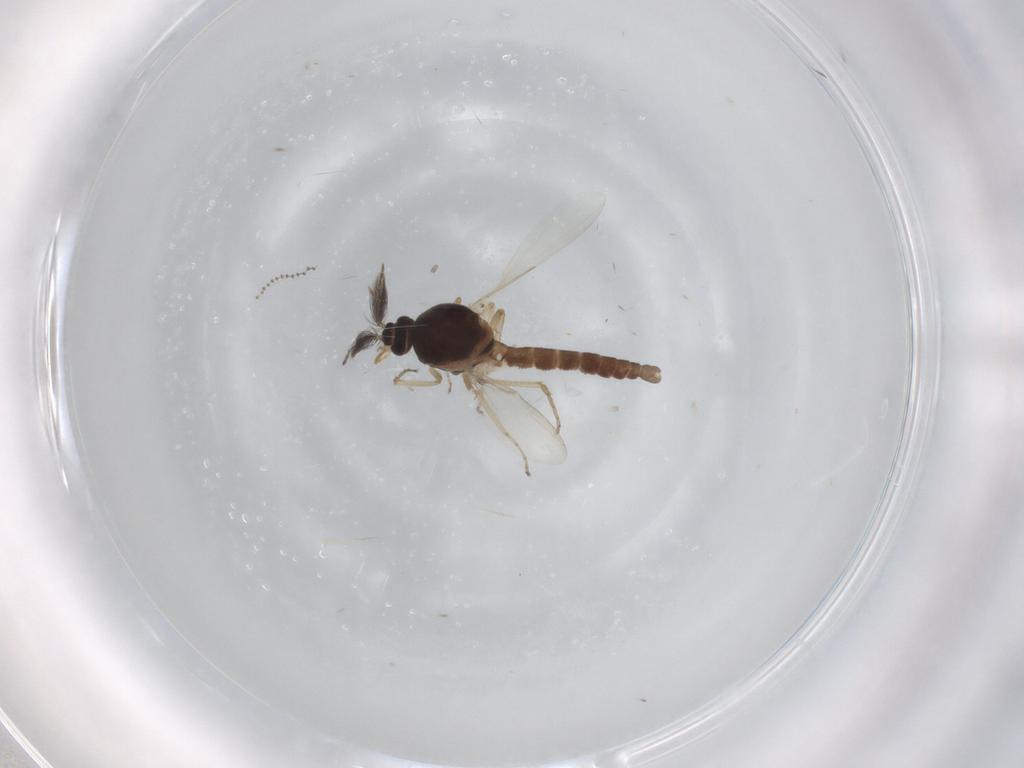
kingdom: Animalia
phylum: Arthropoda
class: Insecta
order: Diptera
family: Ceratopogonidae
